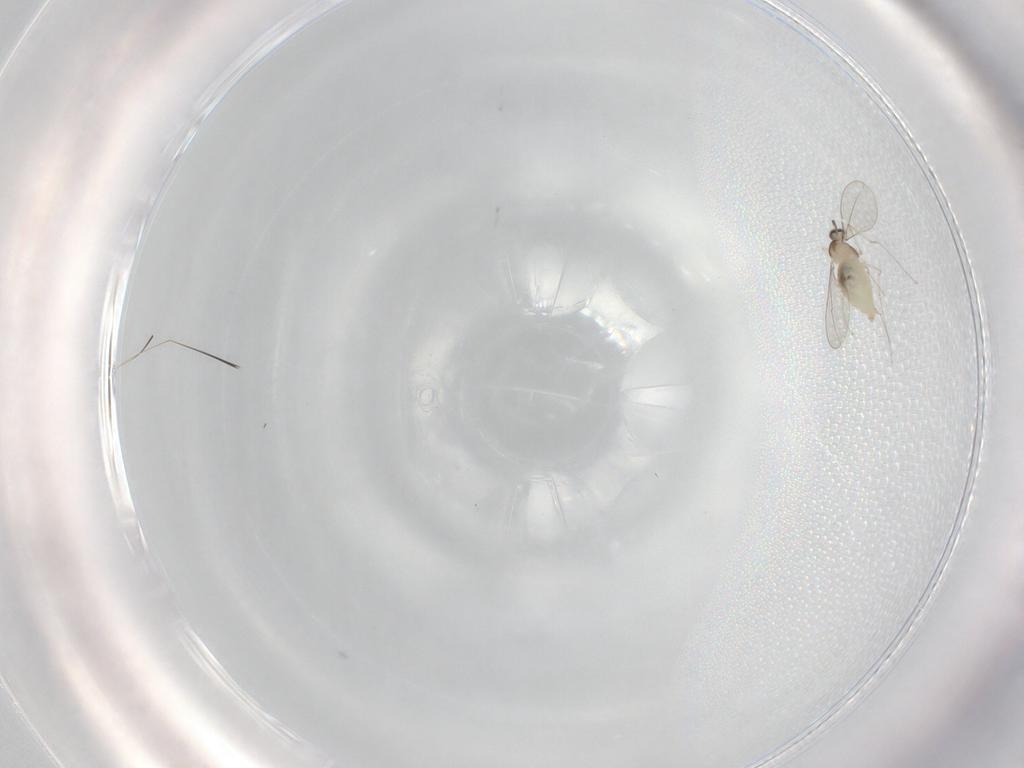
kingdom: Animalia
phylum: Arthropoda
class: Insecta
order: Diptera
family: Cecidomyiidae
